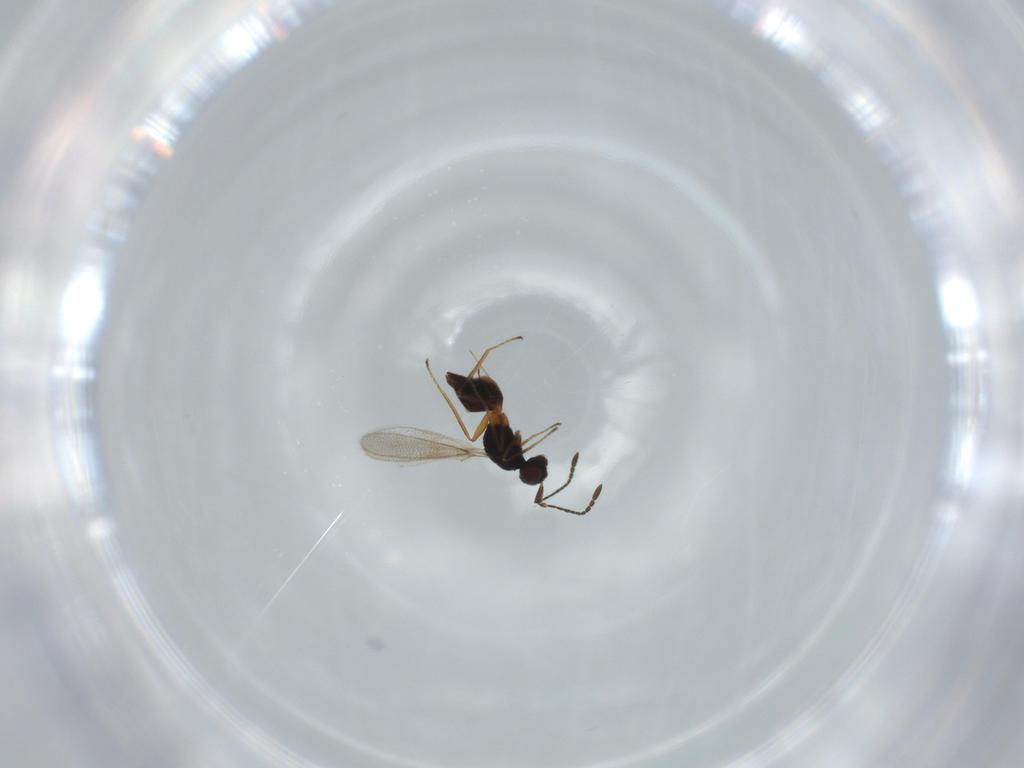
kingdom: Animalia
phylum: Arthropoda
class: Insecta
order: Hymenoptera
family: Mymaridae
